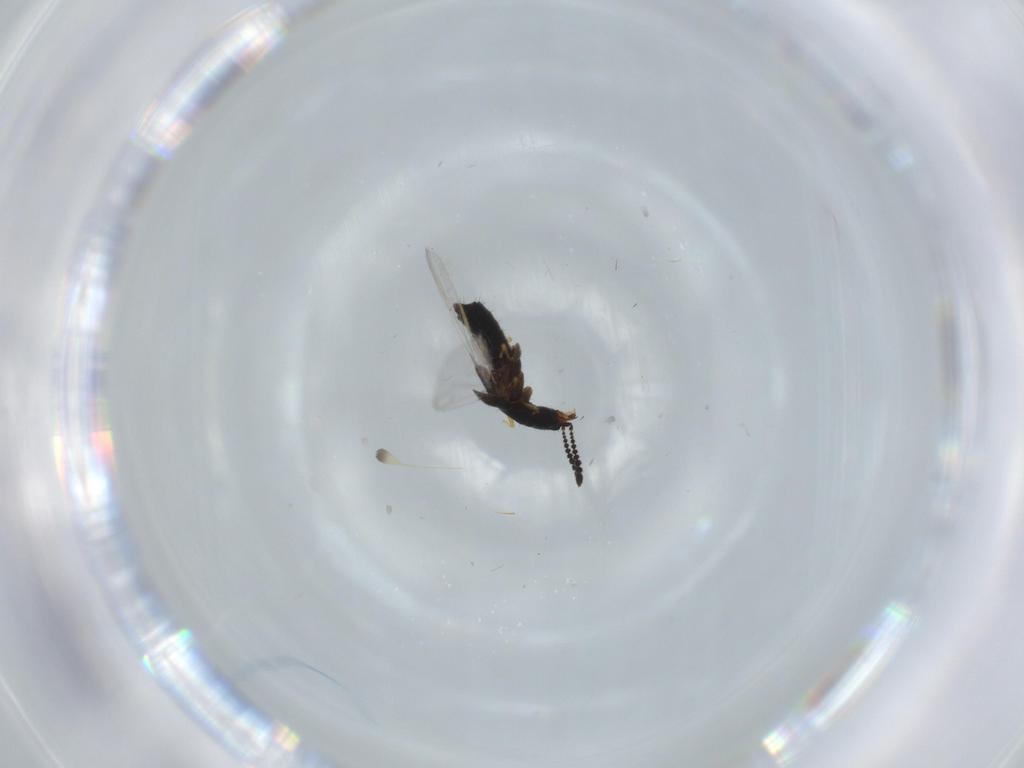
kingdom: Animalia
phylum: Arthropoda
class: Insecta
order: Coleoptera
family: Staphylinidae
